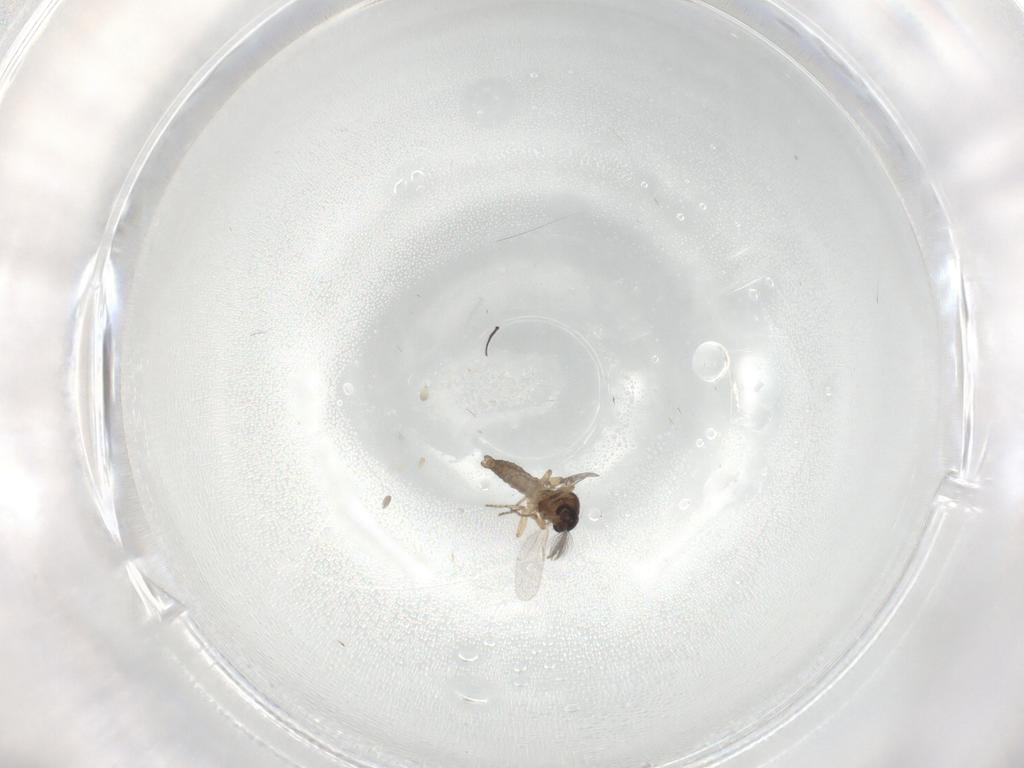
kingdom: Animalia
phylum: Arthropoda
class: Insecta
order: Diptera
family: Ceratopogonidae
